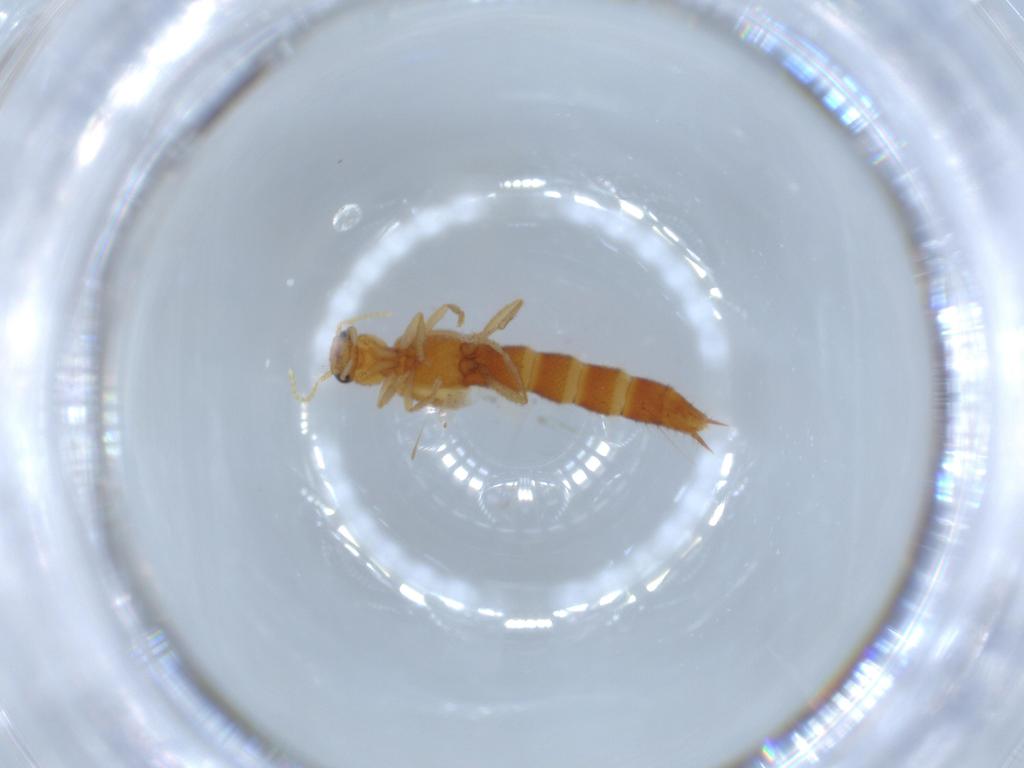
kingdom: Animalia
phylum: Arthropoda
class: Insecta
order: Coleoptera
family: Staphylinidae
